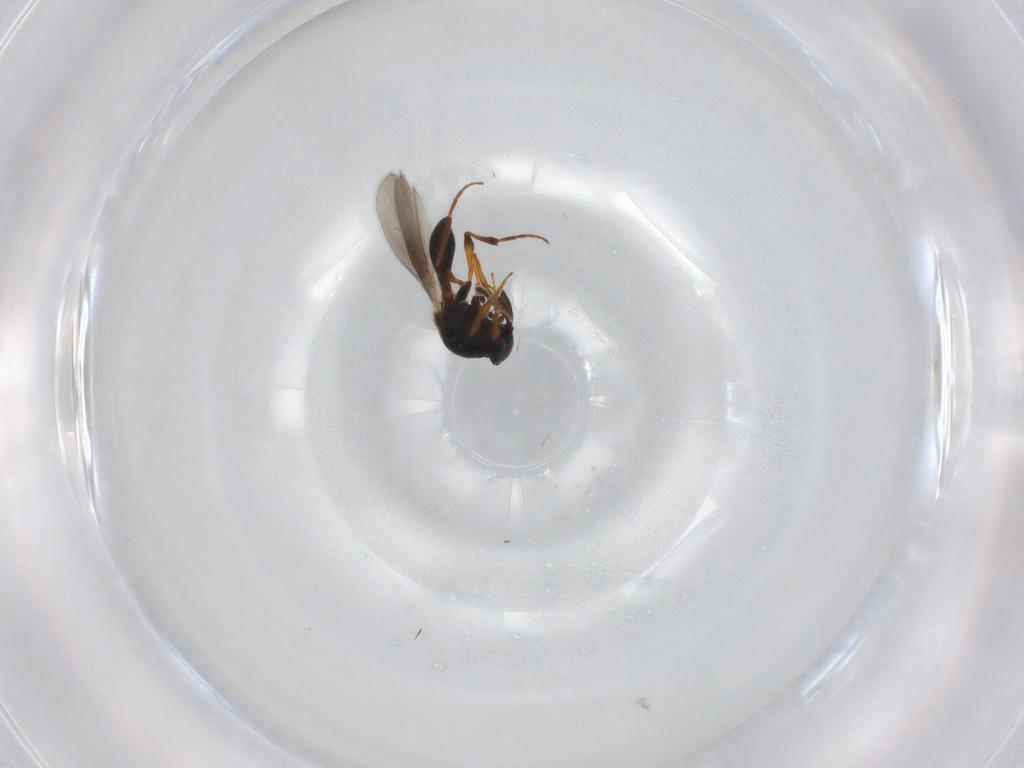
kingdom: Animalia
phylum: Arthropoda
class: Insecta
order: Hymenoptera
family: Platygastridae
